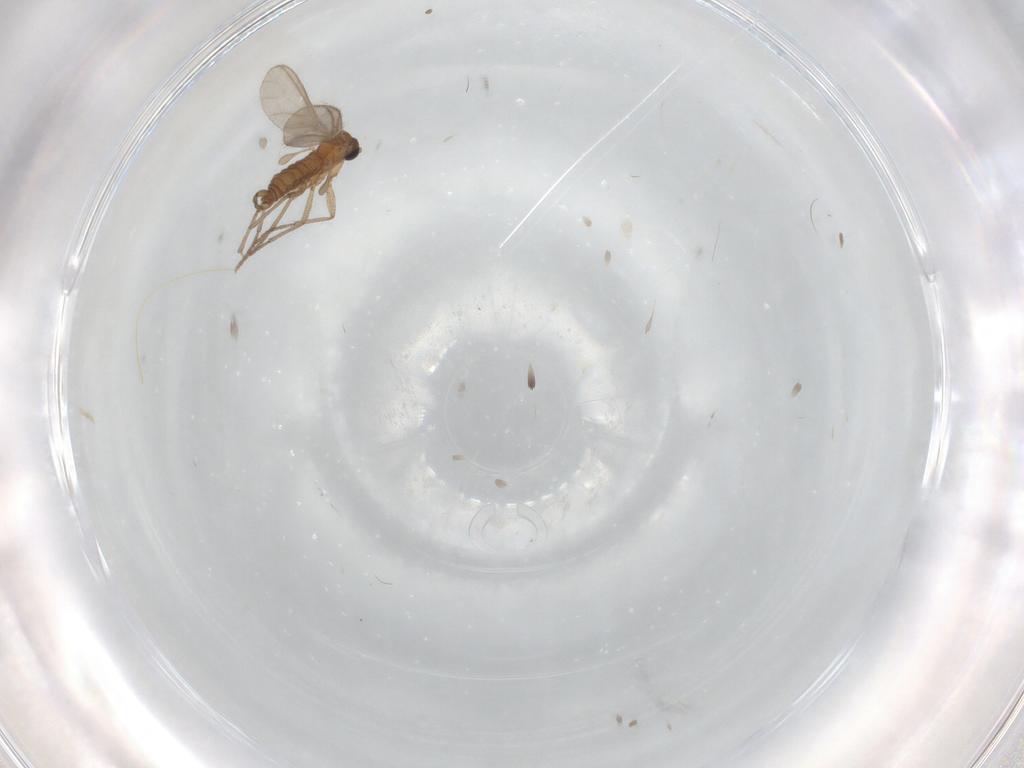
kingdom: Animalia
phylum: Arthropoda
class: Insecta
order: Diptera
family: Sciaridae
